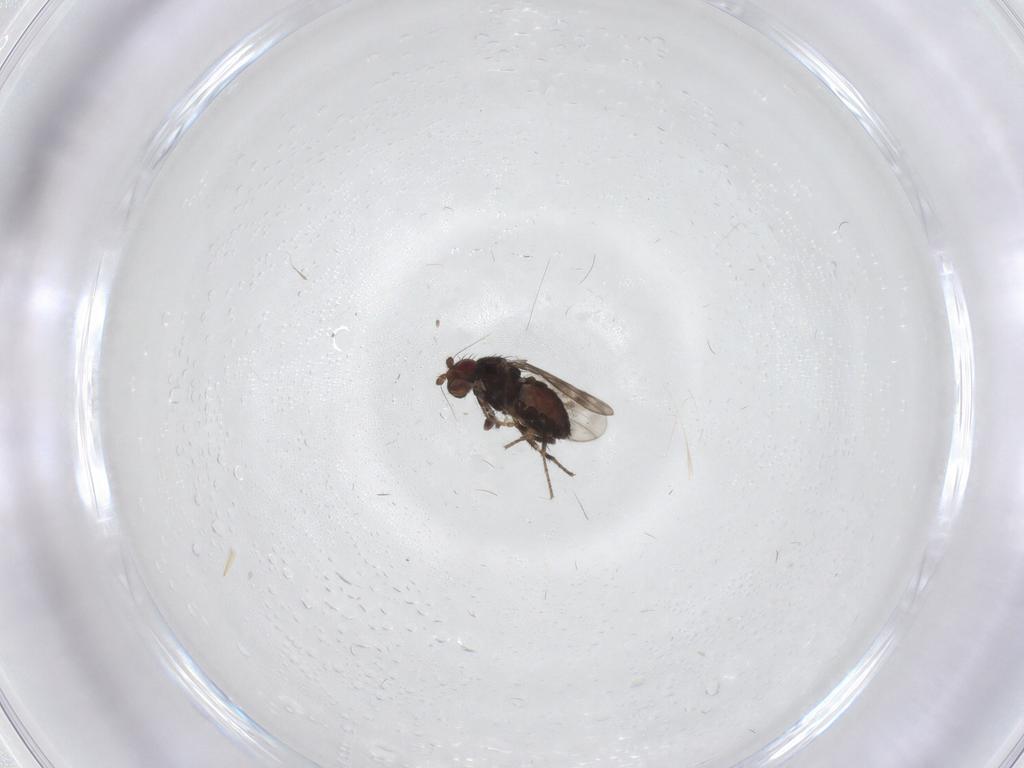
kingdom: Animalia
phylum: Arthropoda
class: Insecta
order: Diptera
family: Sphaeroceridae
